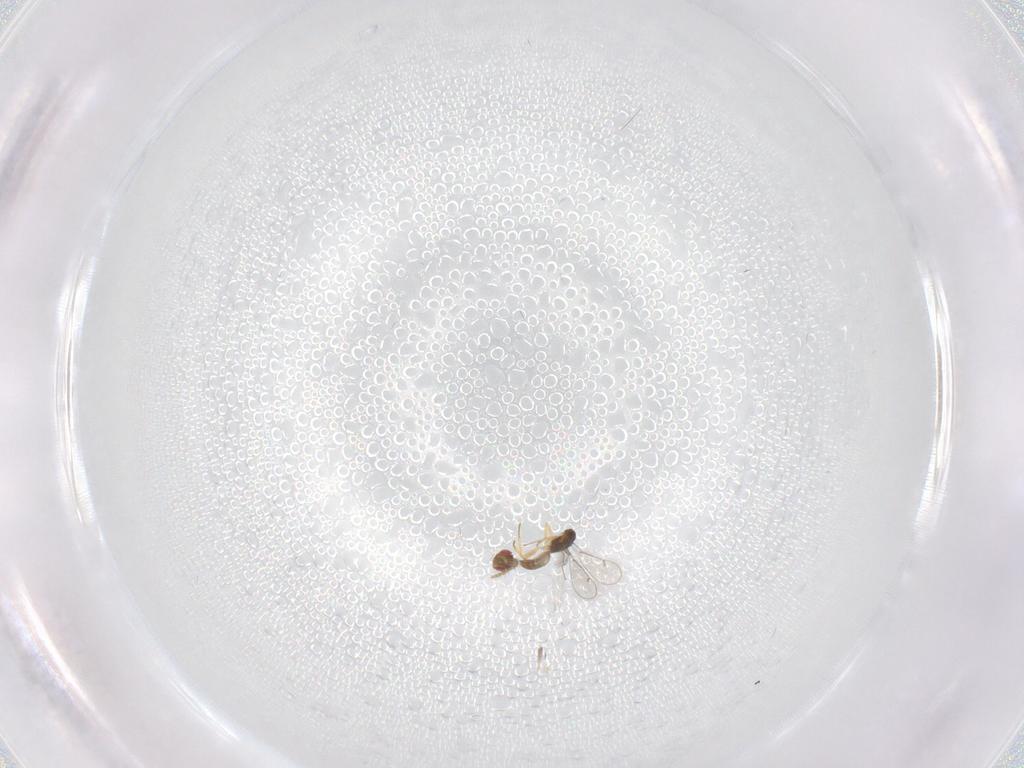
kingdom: Animalia
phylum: Arthropoda
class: Insecta
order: Hymenoptera
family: Eulophidae
